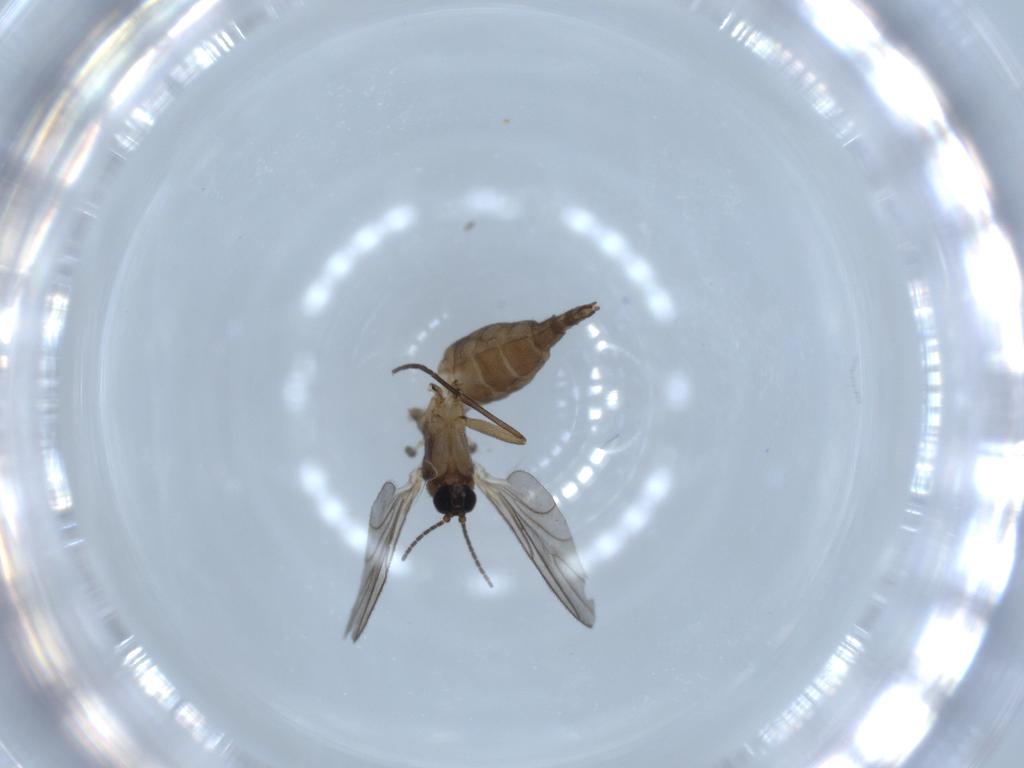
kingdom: Animalia
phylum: Arthropoda
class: Insecta
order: Diptera
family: Sciaridae
